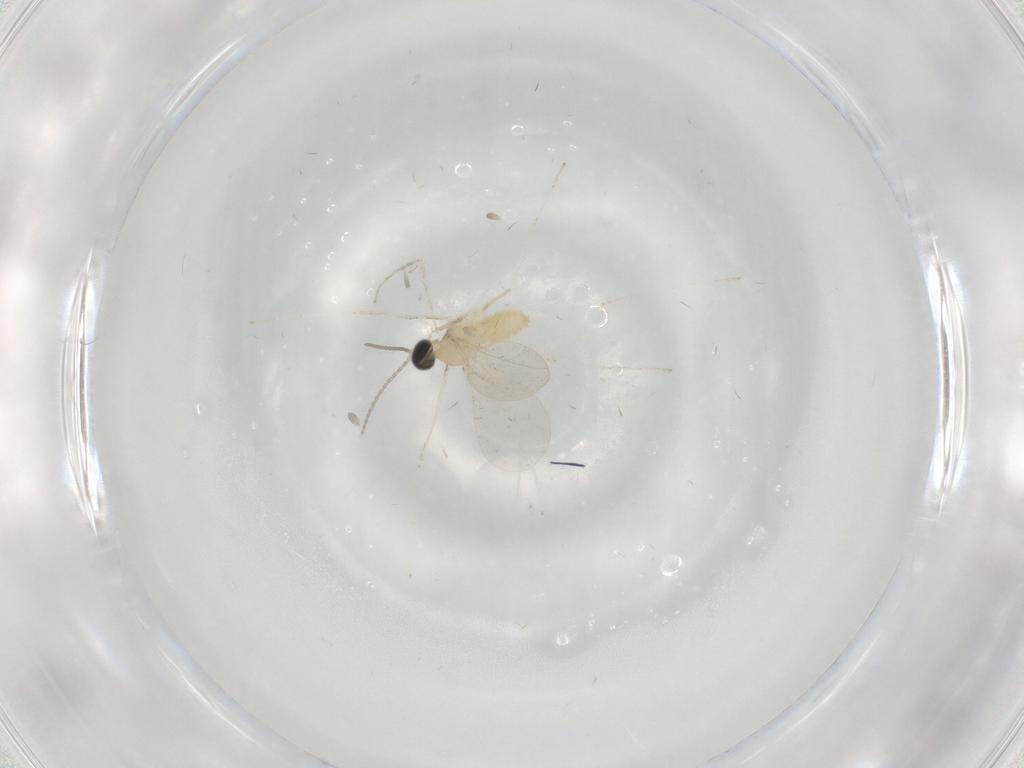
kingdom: Animalia
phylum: Arthropoda
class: Insecta
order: Diptera
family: Cecidomyiidae
